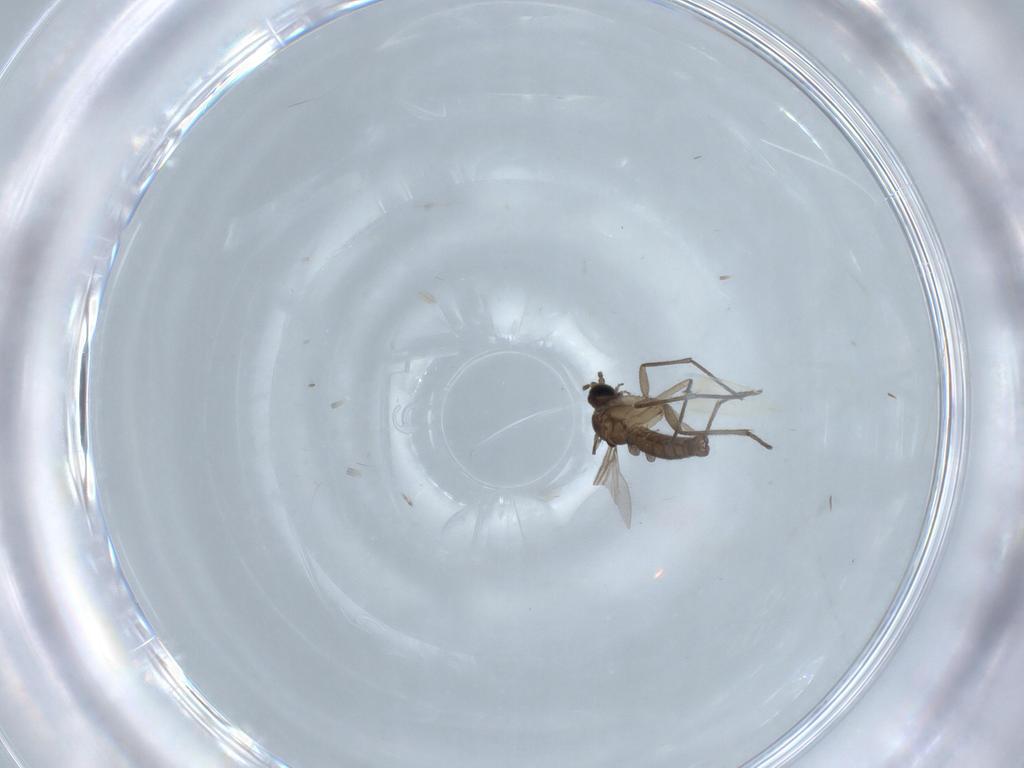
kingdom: Animalia
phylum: Arthropoda
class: Insecta
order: Diptera
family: Sciaridae
